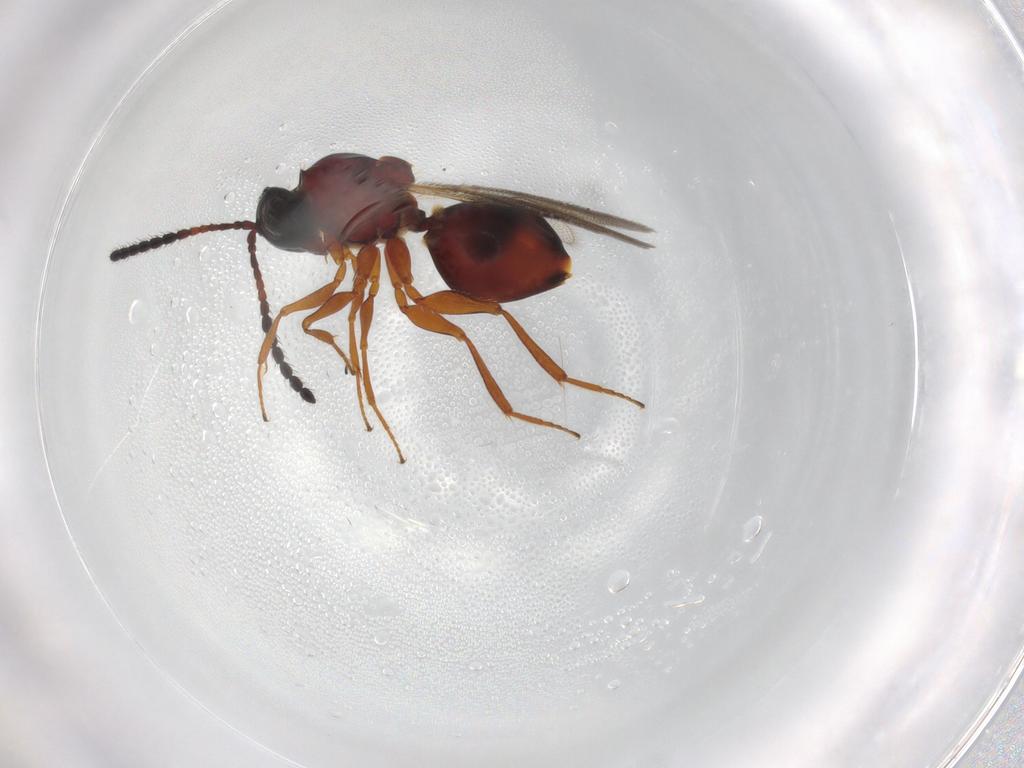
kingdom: Animalia
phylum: Arthropoda
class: Insecta
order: Hymenoptera
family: Figitidae
